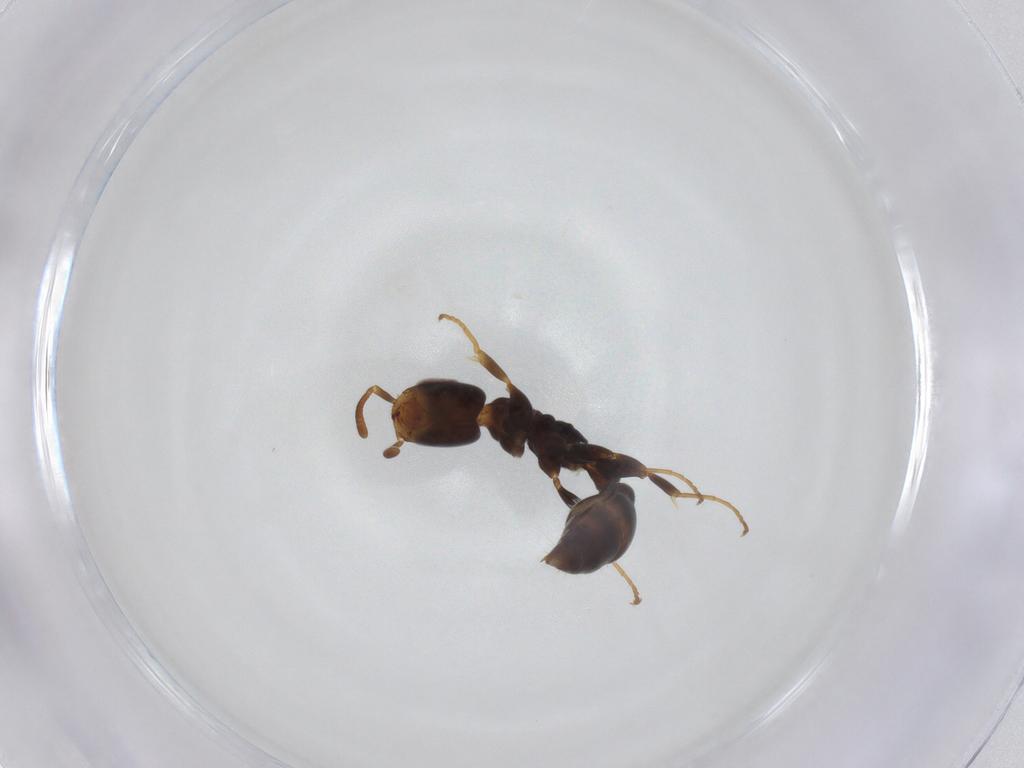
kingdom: Animalia
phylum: Arthropoda
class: Insecta
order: Hymenoptera
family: Formicidae
